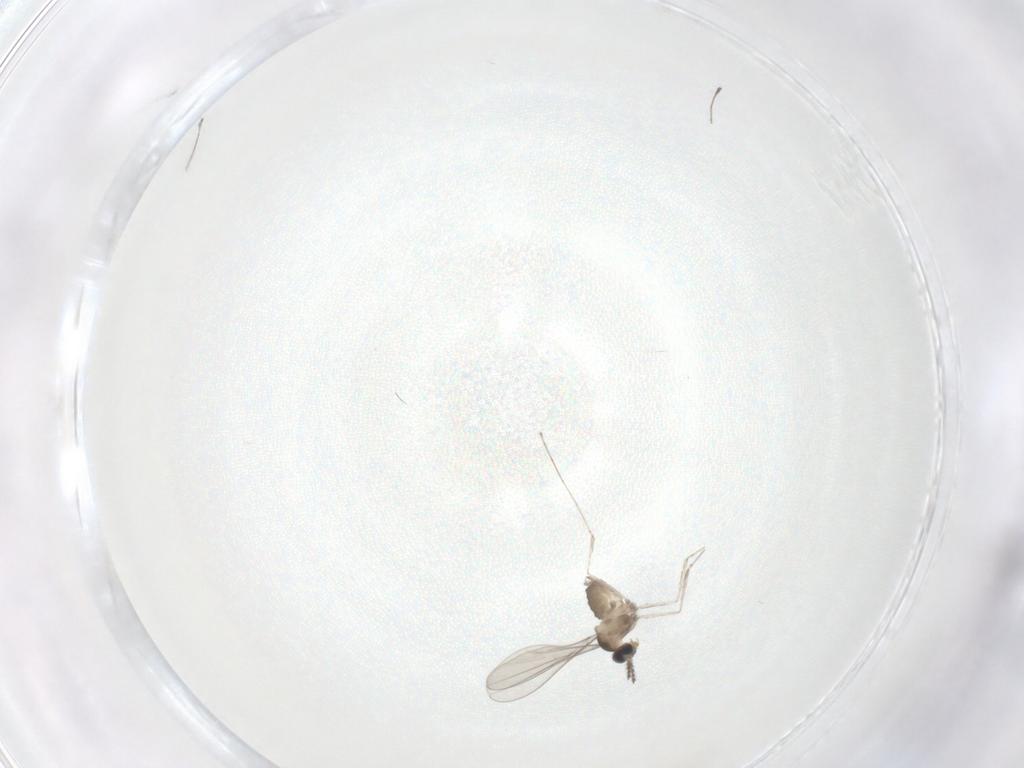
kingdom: Animalia
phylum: Arthropoda
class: Insecta
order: Diptera
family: Cecidomyiidae
